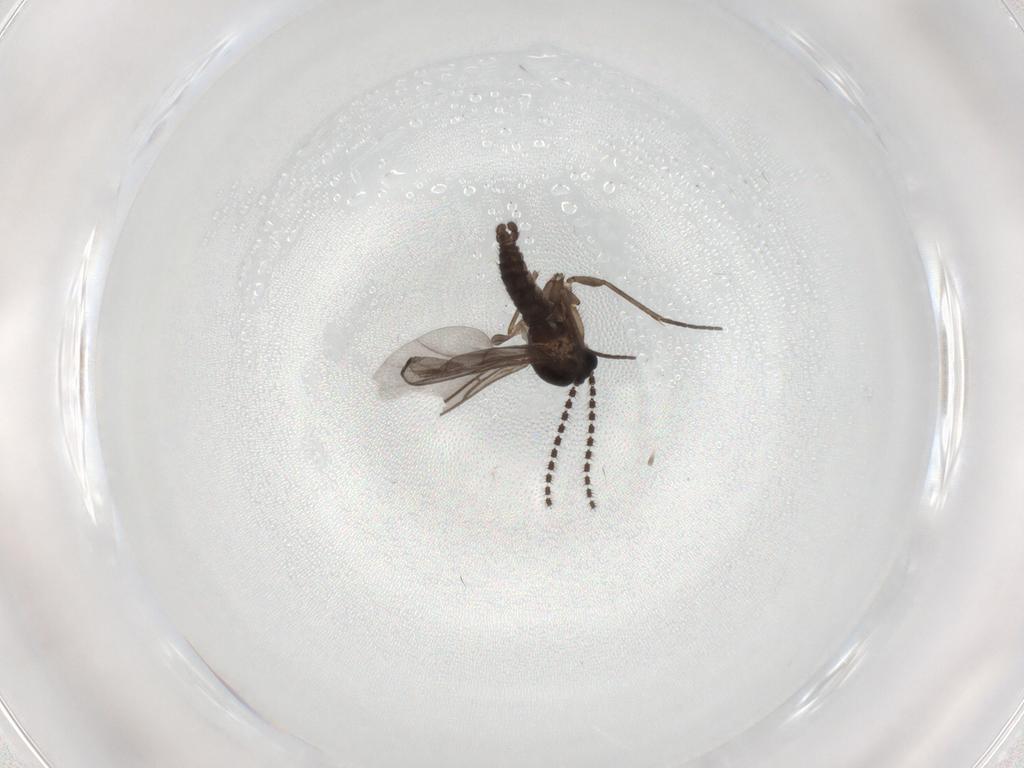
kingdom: Animalia
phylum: Arthropoda
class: Insecta
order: Diptera
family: Sciaridae
